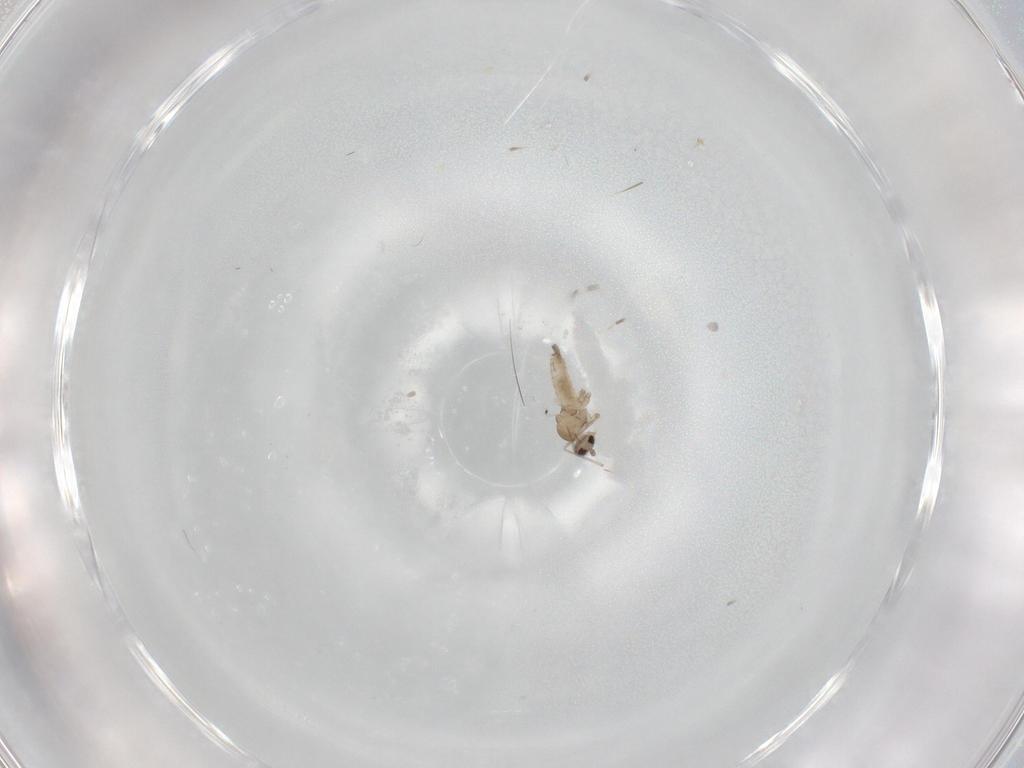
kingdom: Animalia
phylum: Arthropoda
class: Insecta
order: Diptera
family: Cecidomyiidae
